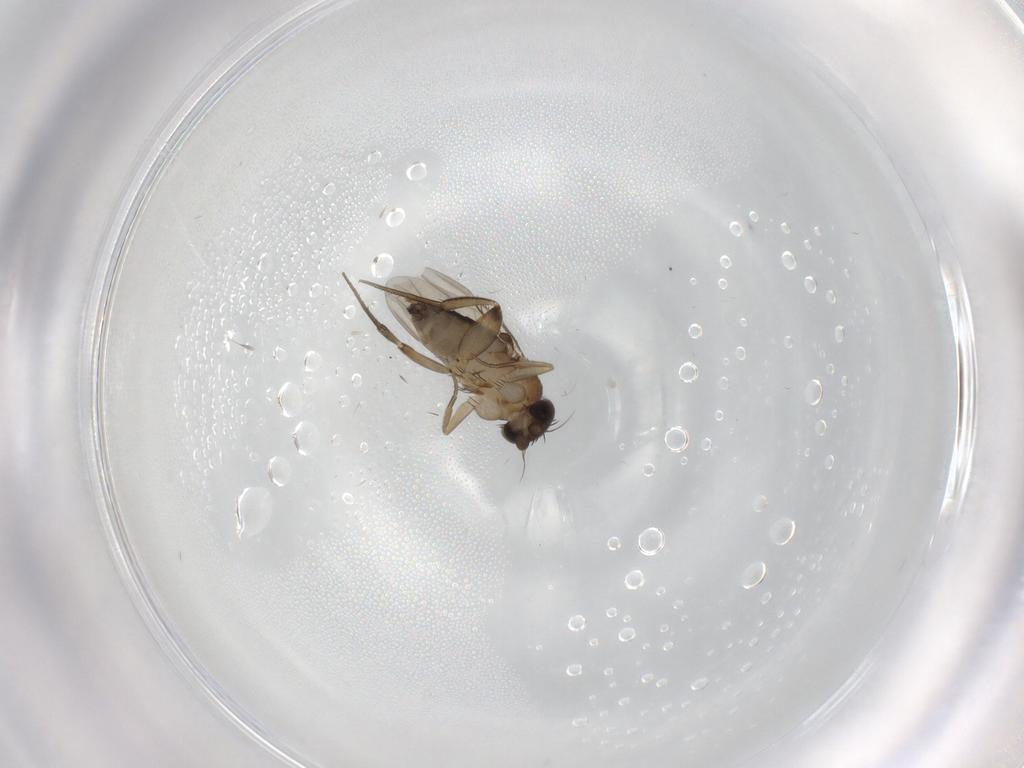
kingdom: Animalia
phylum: Arthropoda
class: Insecta
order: Diptera
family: Phoridae
